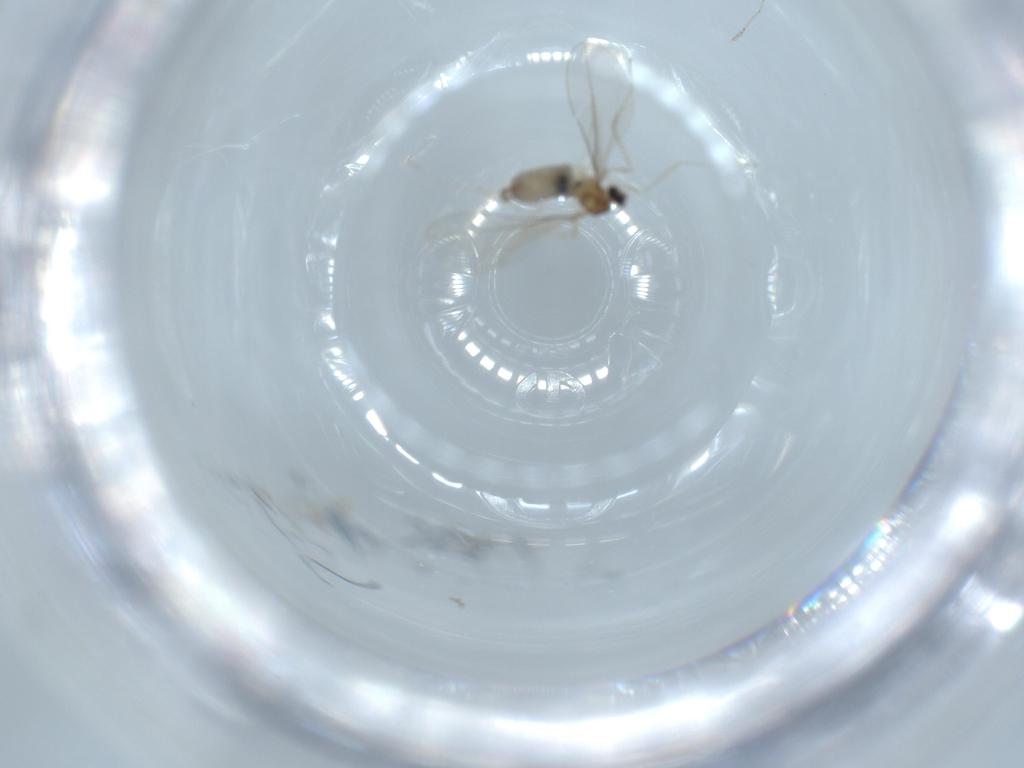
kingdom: Animalia
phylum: Arthropoda
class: Insecta
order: Diptera
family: Cecidomyiidae
